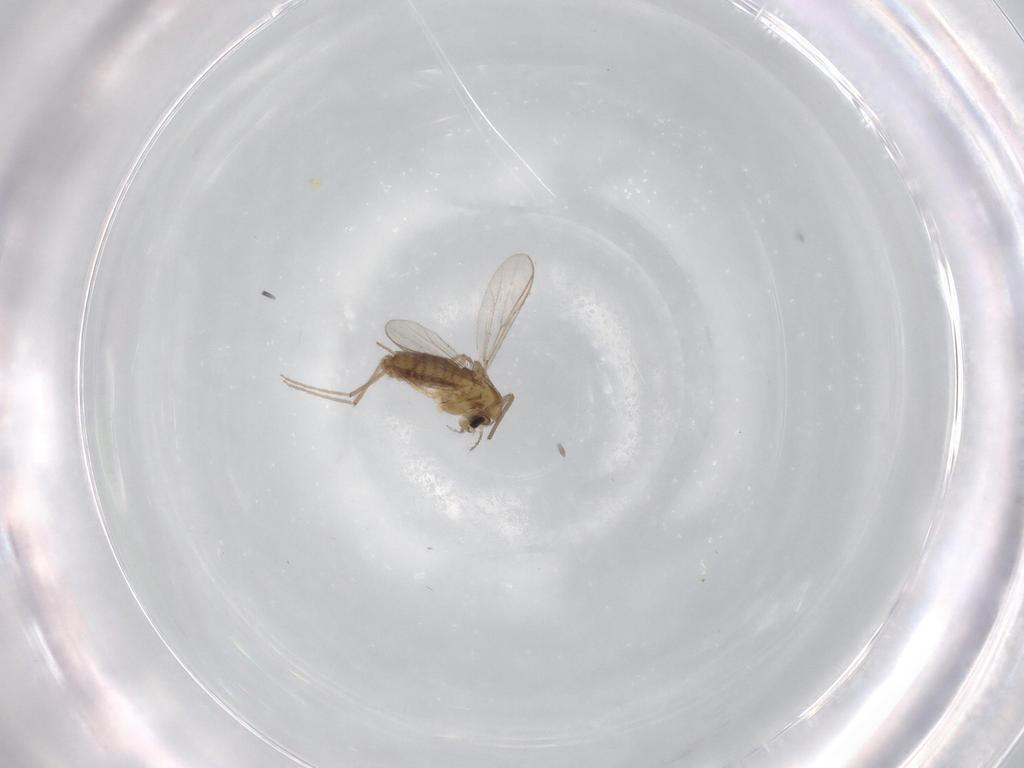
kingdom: Animalia
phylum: Arthropoda
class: Insecta
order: Diptera
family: Chironomidae
